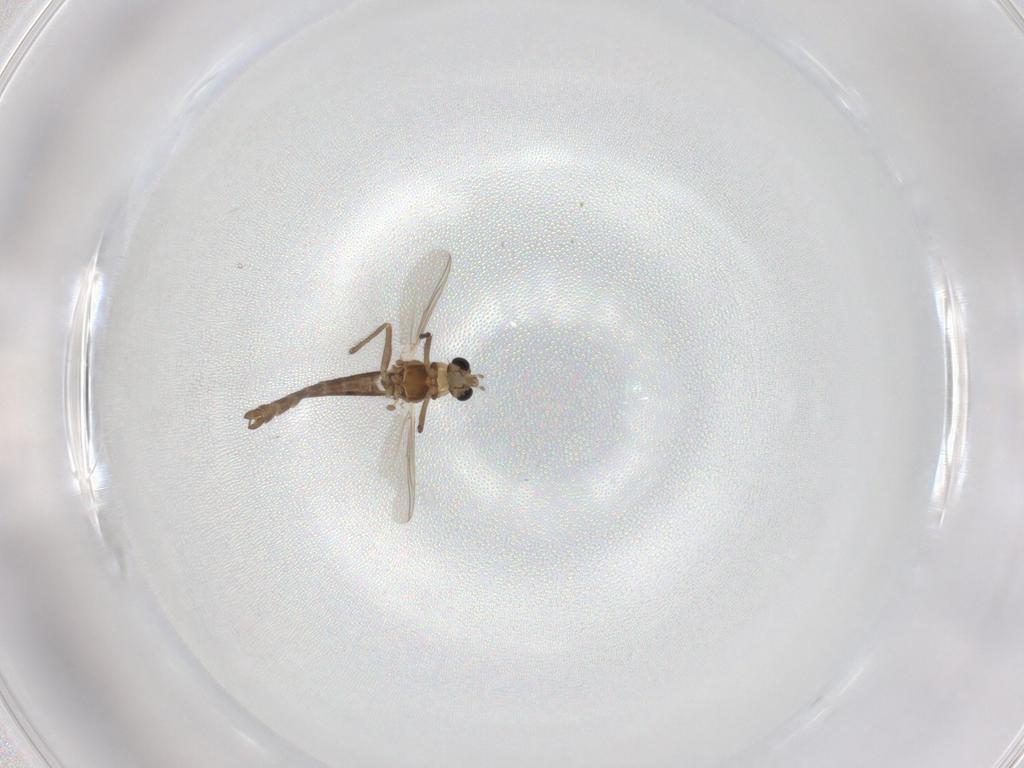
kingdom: Animalia
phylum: Arthropoda
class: Insecta
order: Diptera
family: Chironomidae
